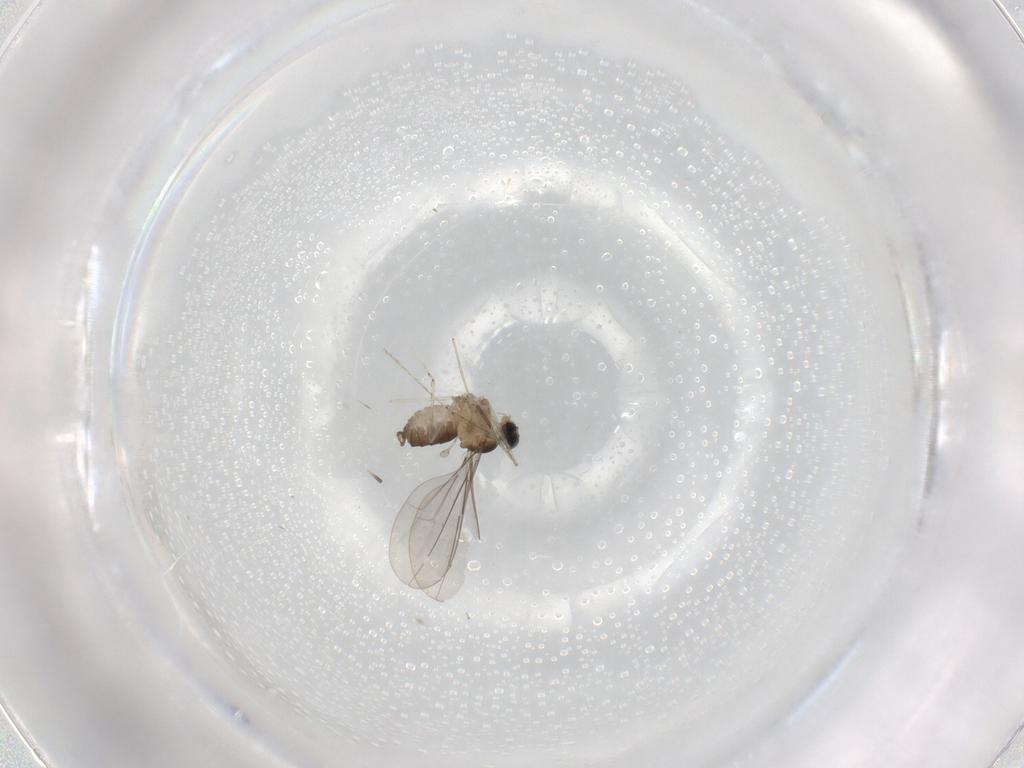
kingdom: Animalia
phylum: Arthropoda
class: Insecta
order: Diptera
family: Cecidomyiidae
